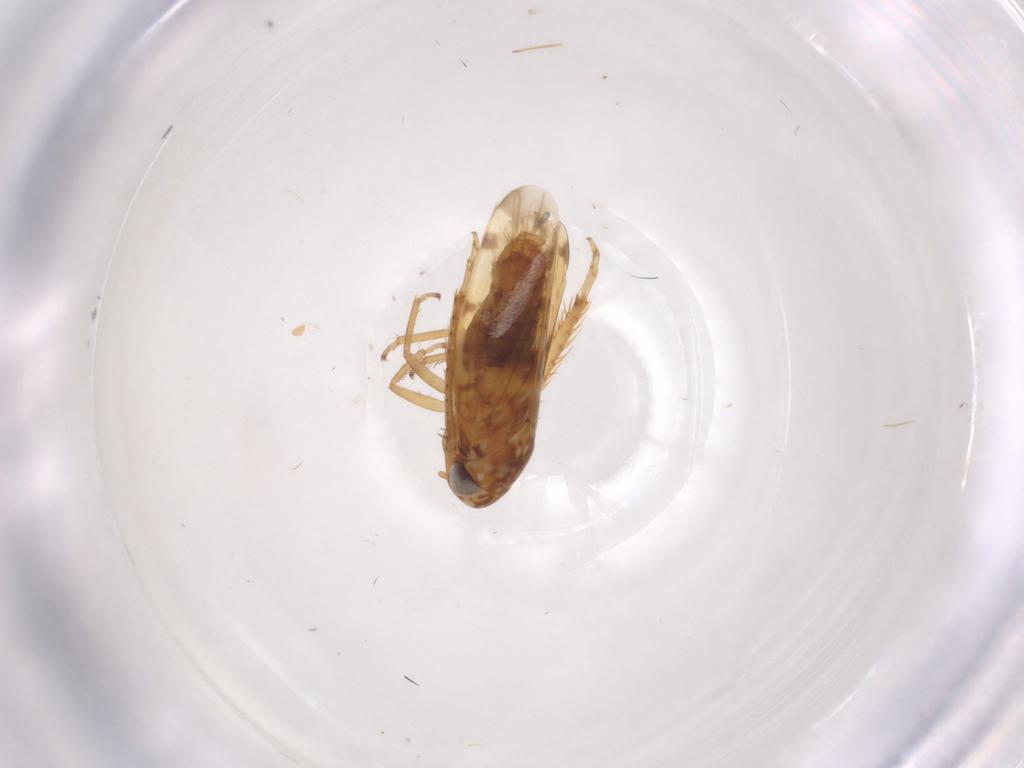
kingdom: Animalia
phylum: Arthropoda
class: Insecta
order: Hemiptera
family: Cicadellidae
